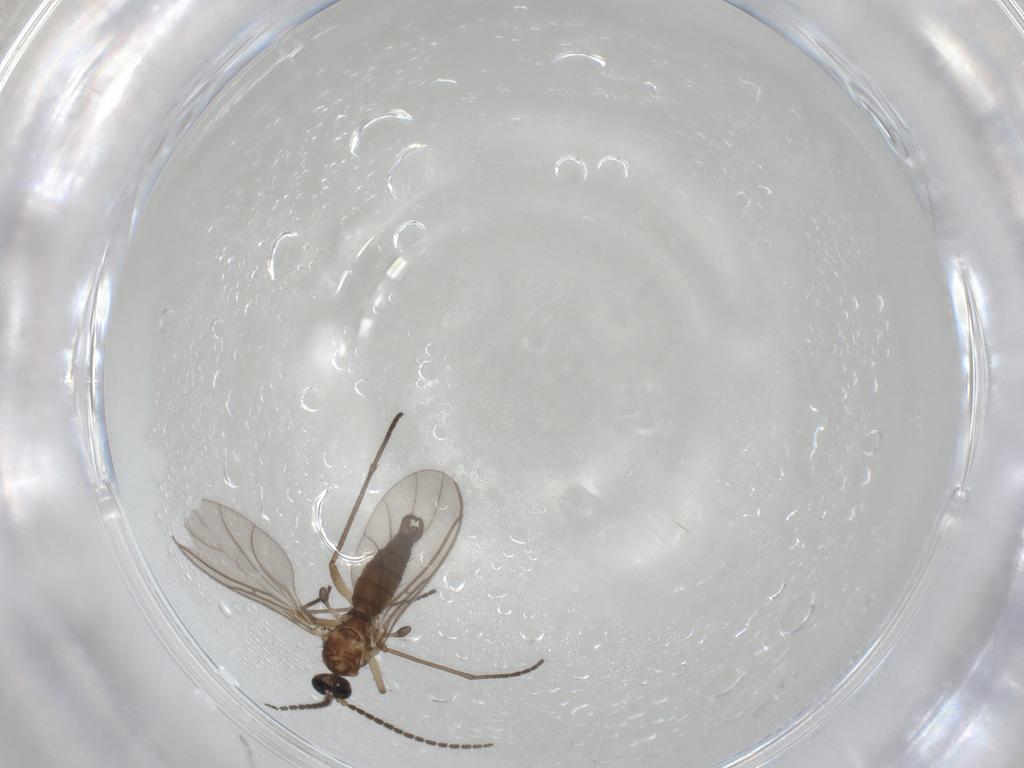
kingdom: Animalia
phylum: Arthropoda
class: Insecta
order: Diptera
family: Sciaridae
